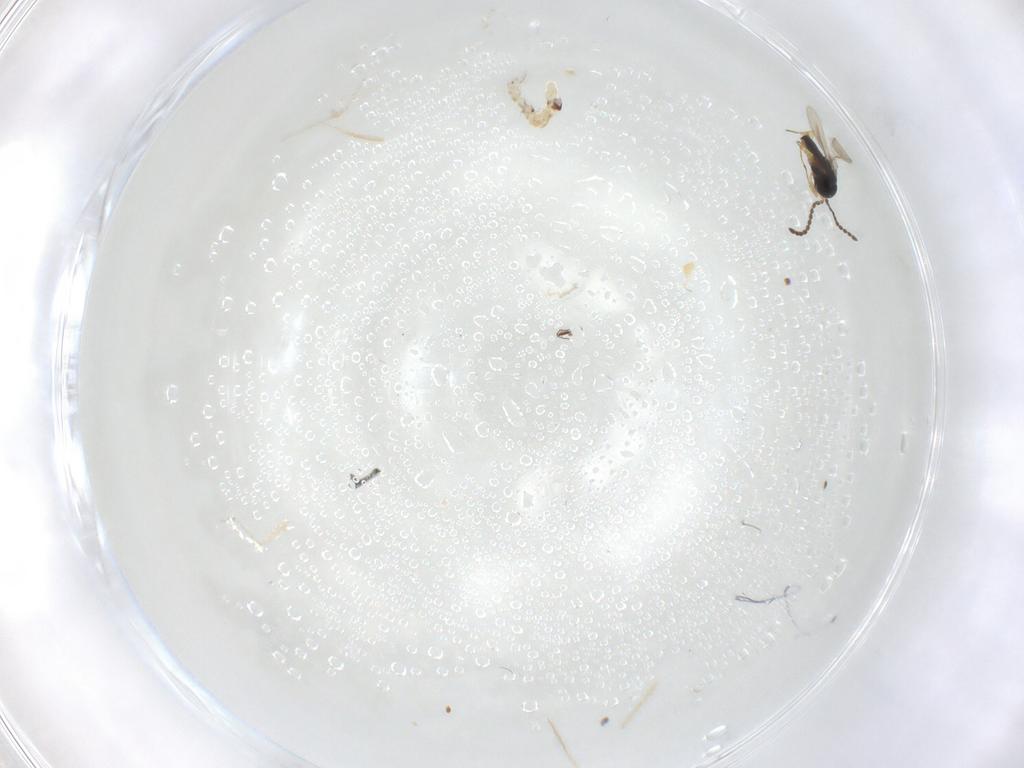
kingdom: Animalia
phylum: Arthropoda
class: Insecta
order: Hymenoptera
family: Scelionidae
